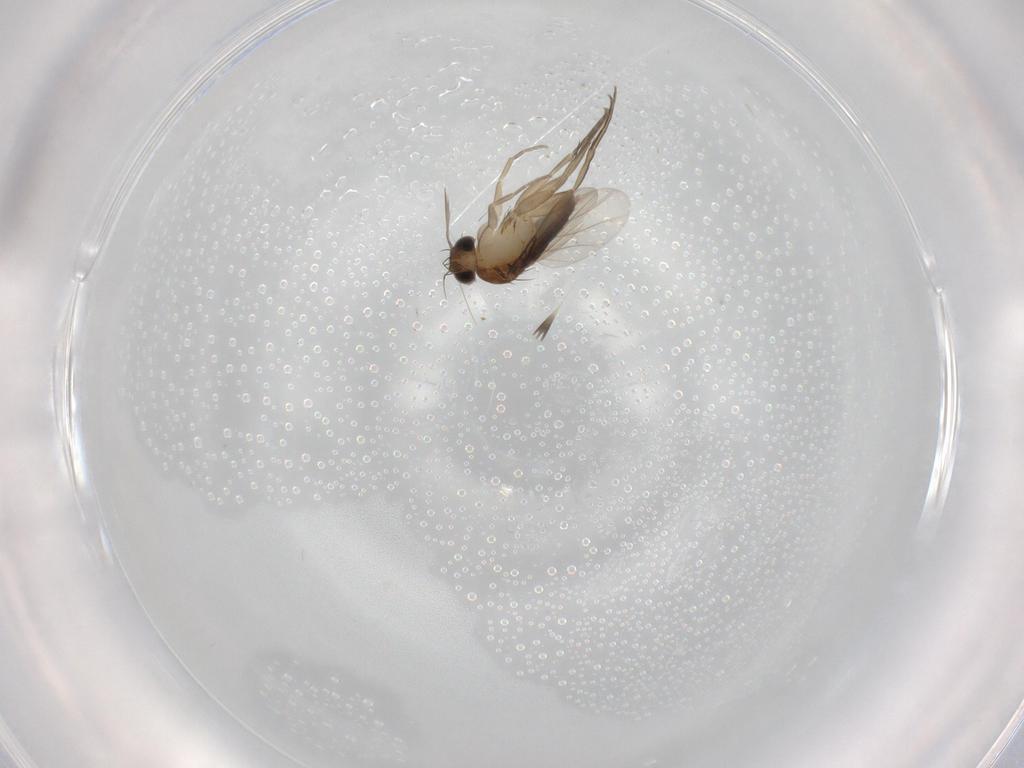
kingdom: Animalia
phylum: Arthropoda
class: Insecta
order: Diptera
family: Phoridae
